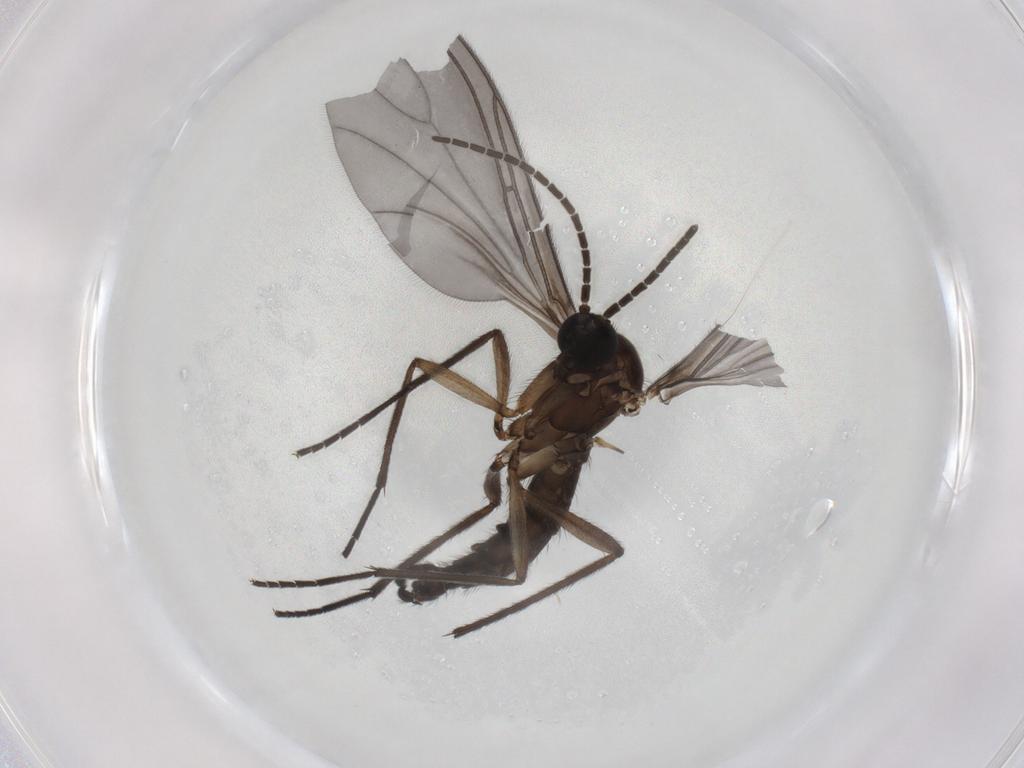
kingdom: Animalia
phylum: Arthropoda
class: Insecta
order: Diptera
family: Sciaridae
